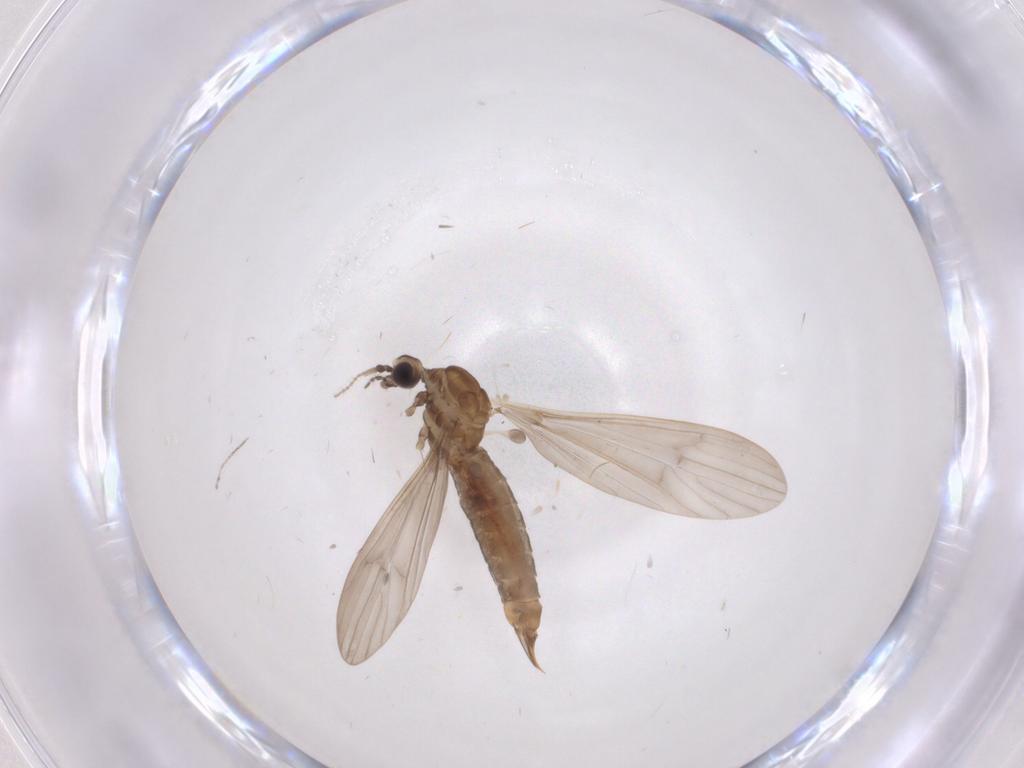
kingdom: Animalia
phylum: Arthropoda
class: Insecta
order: Diptera
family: Limoniidae
